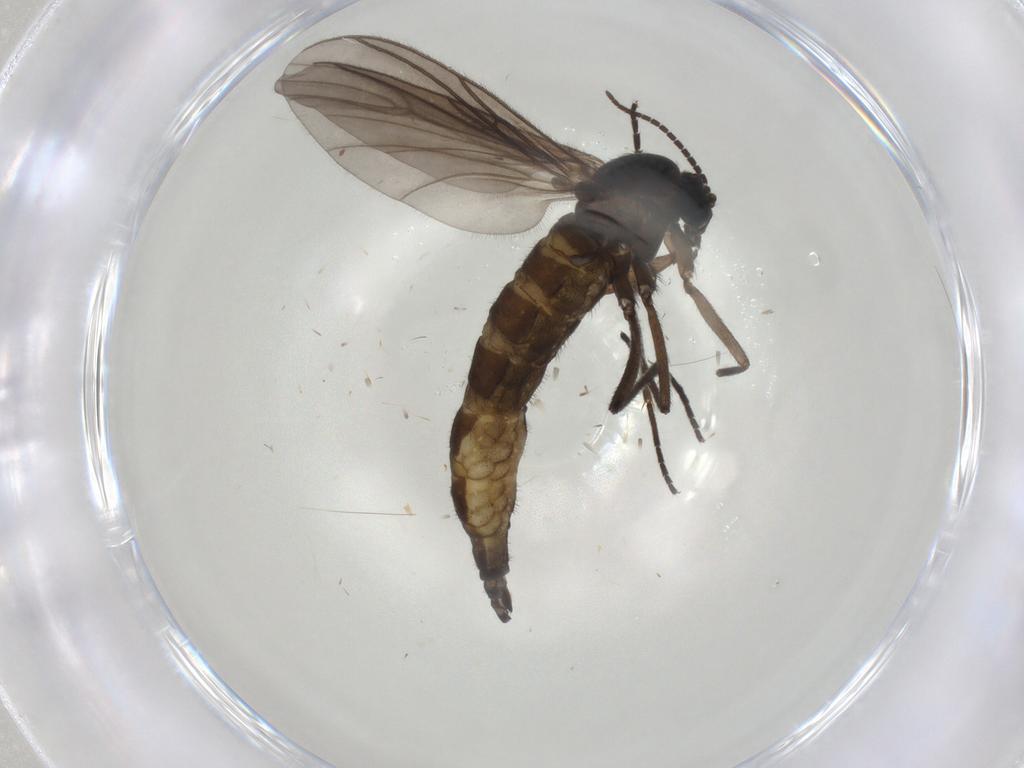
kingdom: Animalia
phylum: Arthropoda
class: Insecta
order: Diptera
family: Sciaridae
